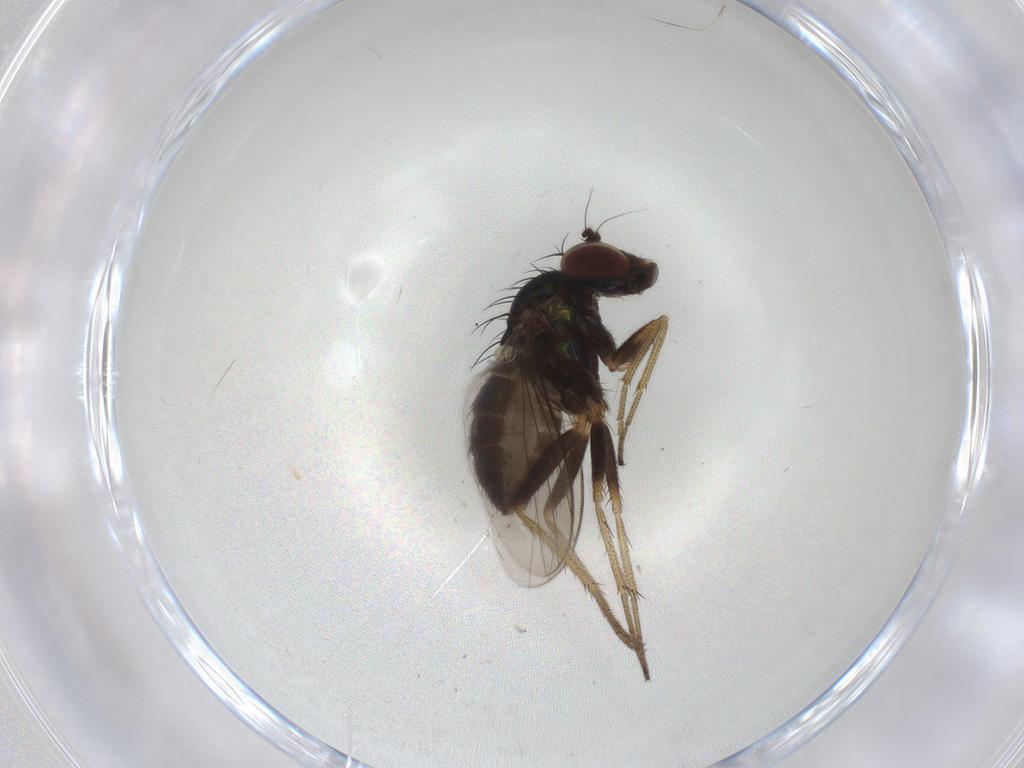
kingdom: Animalia
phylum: Arthropoda
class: Insecta
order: Diptera
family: Dolichopodidae
